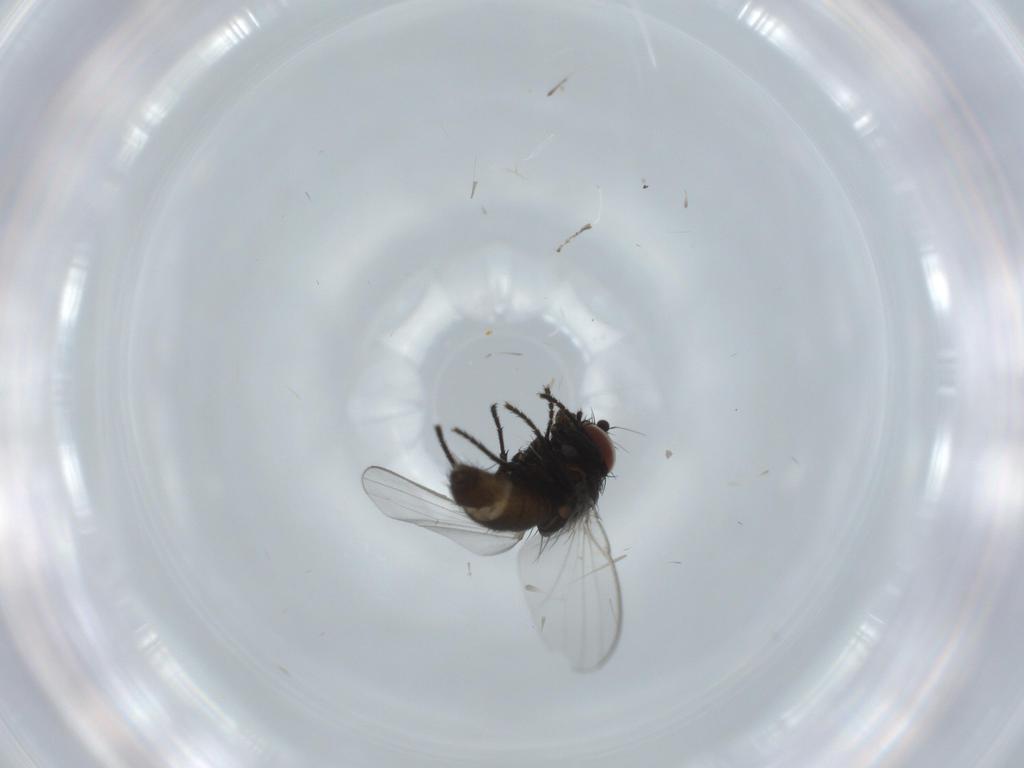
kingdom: Animalia
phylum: Arthropoda
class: Insecta
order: Diptera
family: Milichiidae
